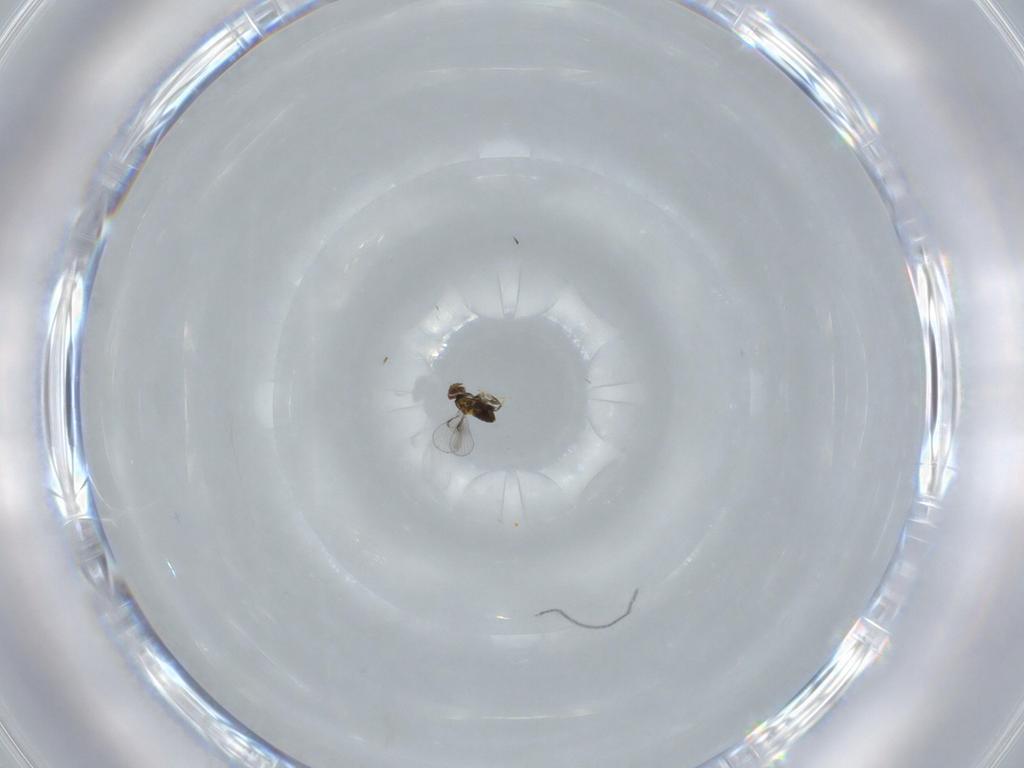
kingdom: Animalia
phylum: Arthropoda
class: Insecta
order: Hymenoptera
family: Trichogrammatidae
